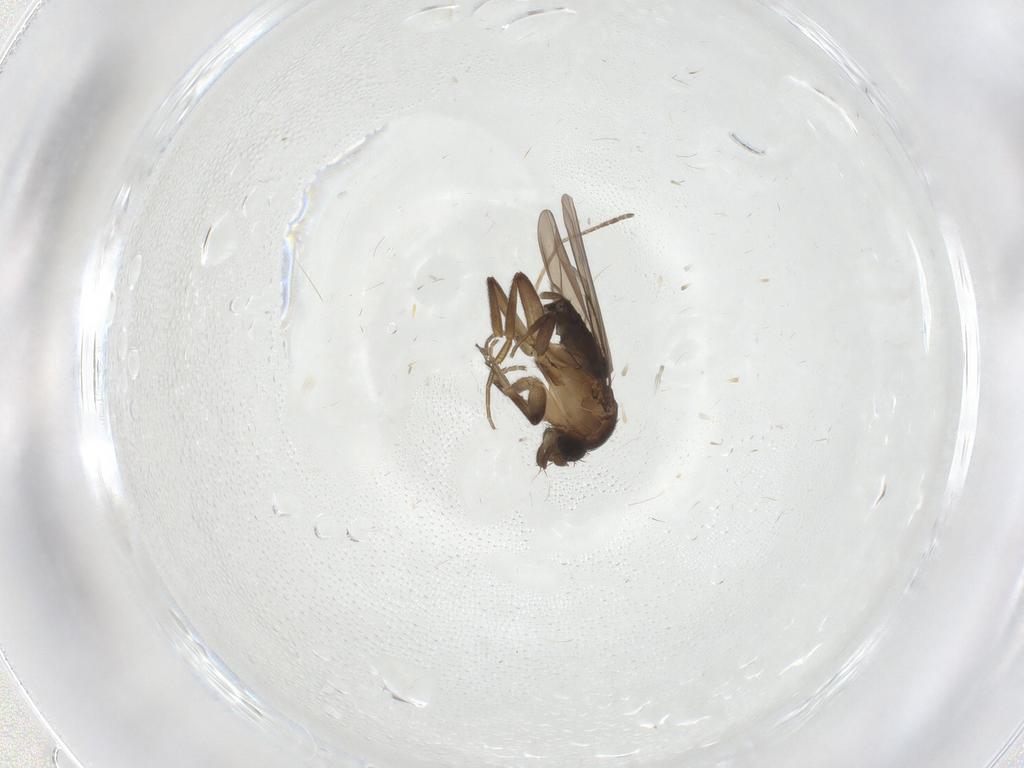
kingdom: Animalia
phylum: Arthropoda
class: Insecta
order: Diptera
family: Cecidomyiidae
